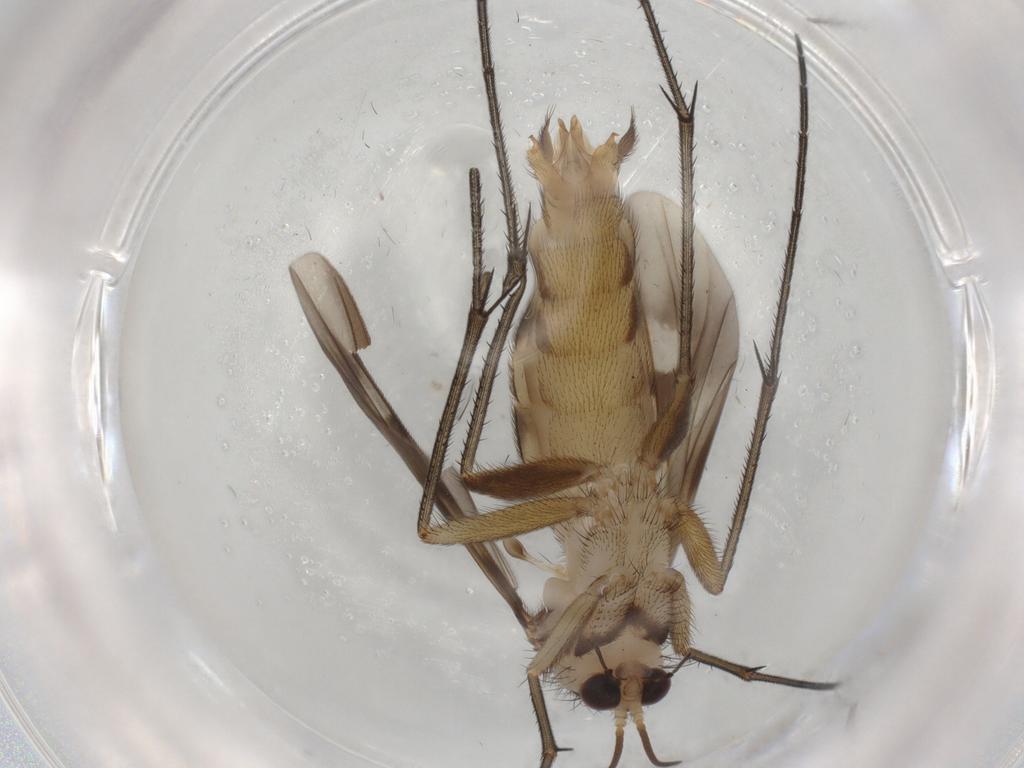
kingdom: Animalia
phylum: Arthropoda
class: Insecta
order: Diptera
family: Mycetophilidae
